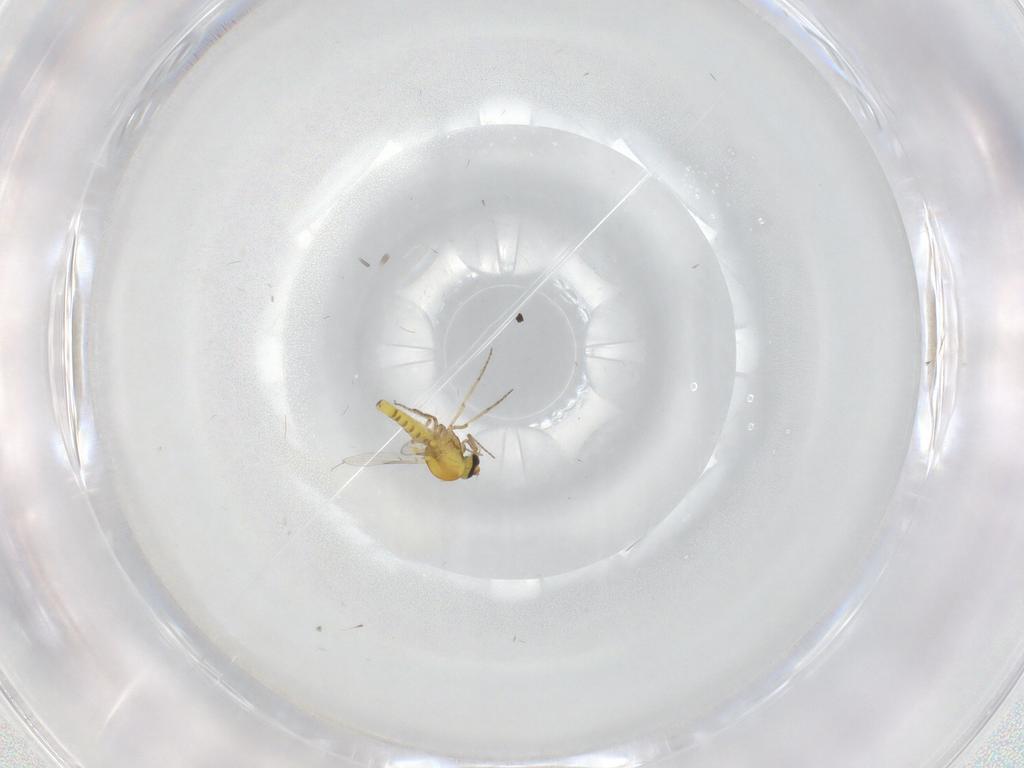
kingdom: Animalia
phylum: Arthropoda
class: Insecta
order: Diptera
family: Ceratopogonidae
